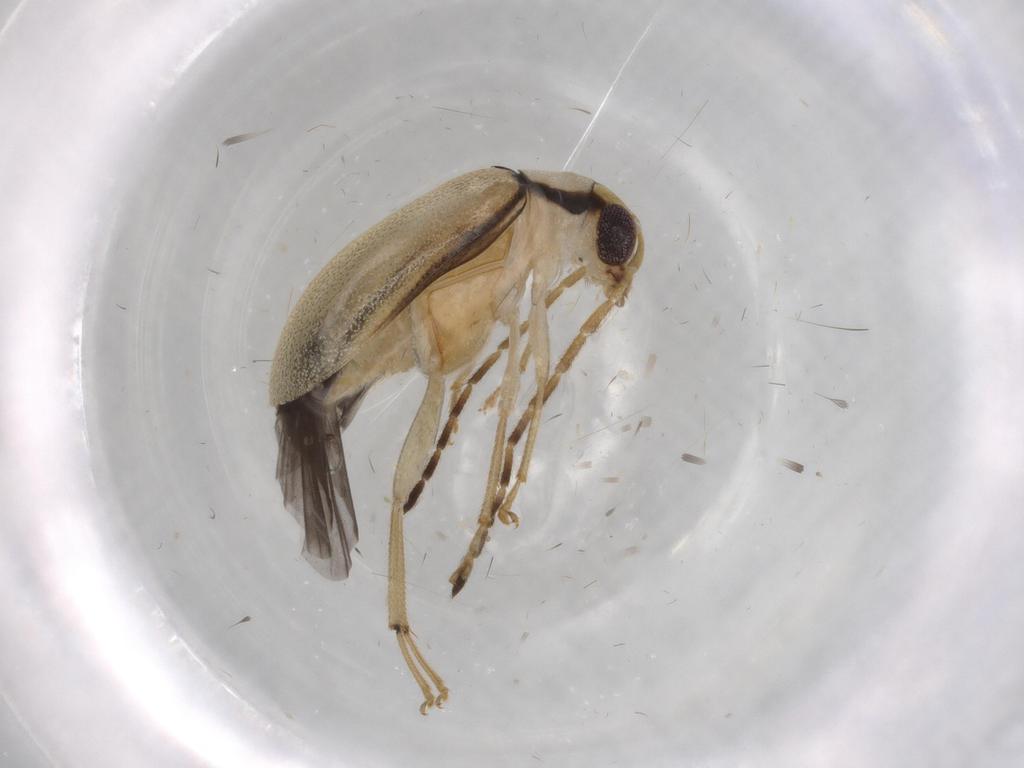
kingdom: Animalia
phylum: Arthropoda
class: Insecta
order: Coleoptera
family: Chrysomelidae
